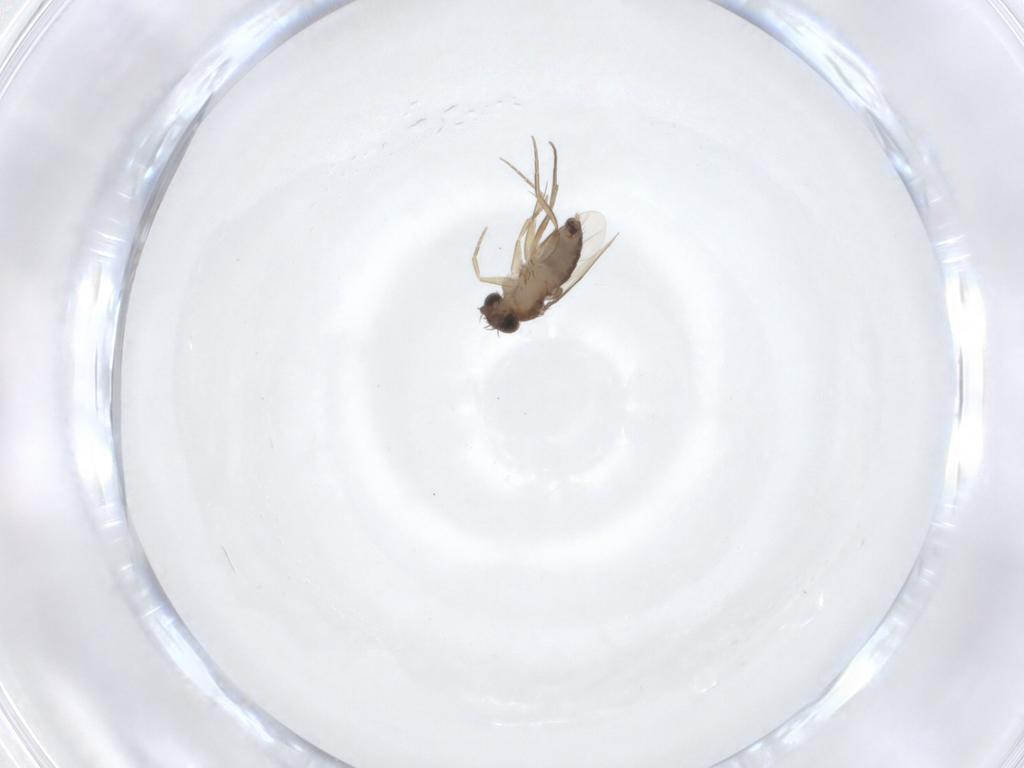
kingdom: Animalia
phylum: Arthropoda
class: Insecta
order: Diptera
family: Phoridae
